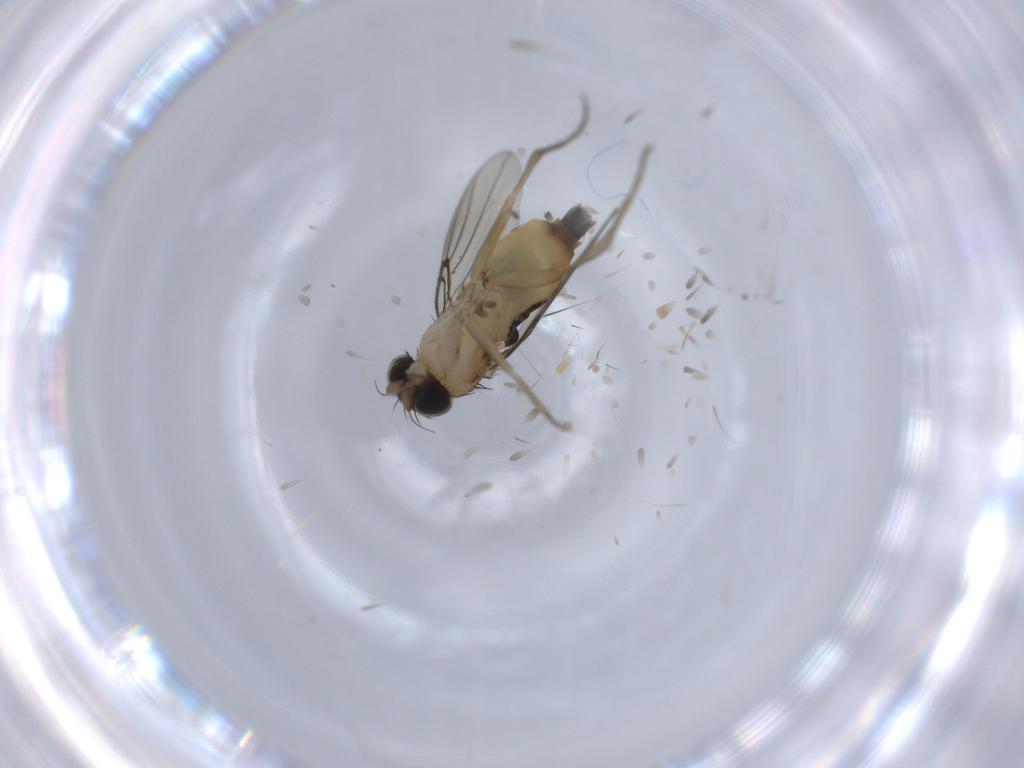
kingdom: Animalia
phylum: Arthropoda
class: Insecta
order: Diptera
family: Phoridae
